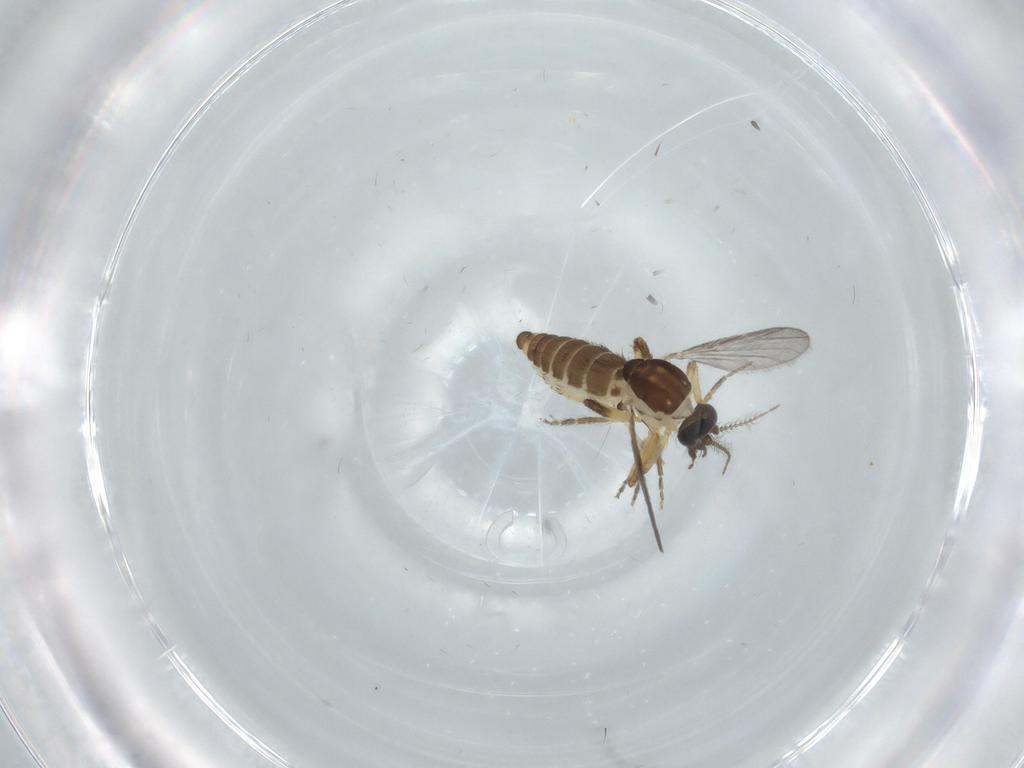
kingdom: Animalia
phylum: Arthropoda
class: Insecta
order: Diptera
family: Ceratopogonidae
